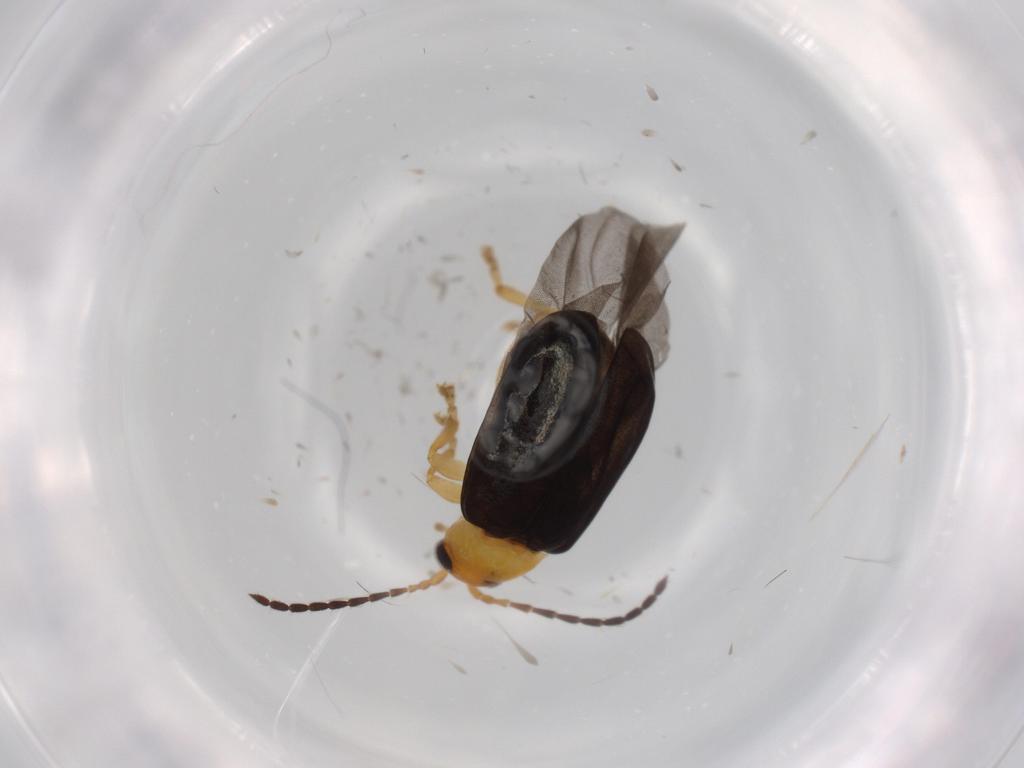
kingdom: Animalia
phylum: Arthropoda
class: Insecta
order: Coleoptera
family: Chrysomelidae
